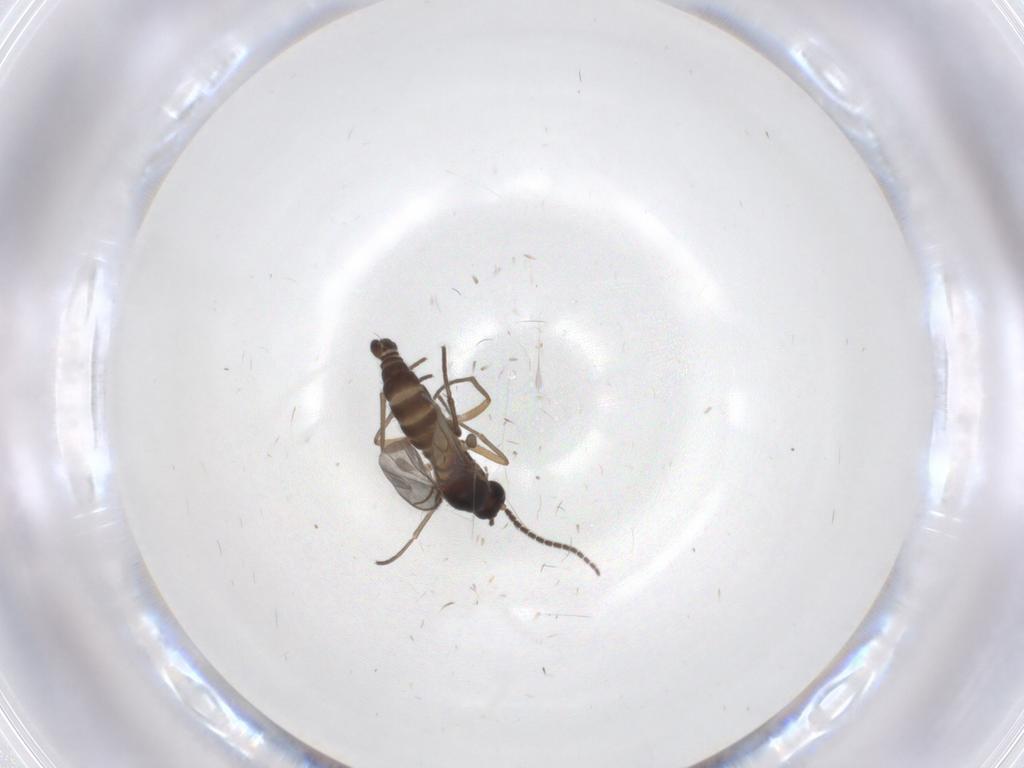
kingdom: Animalia
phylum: Arthropoda
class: Insecta
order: Diptera
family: Sciaridae
